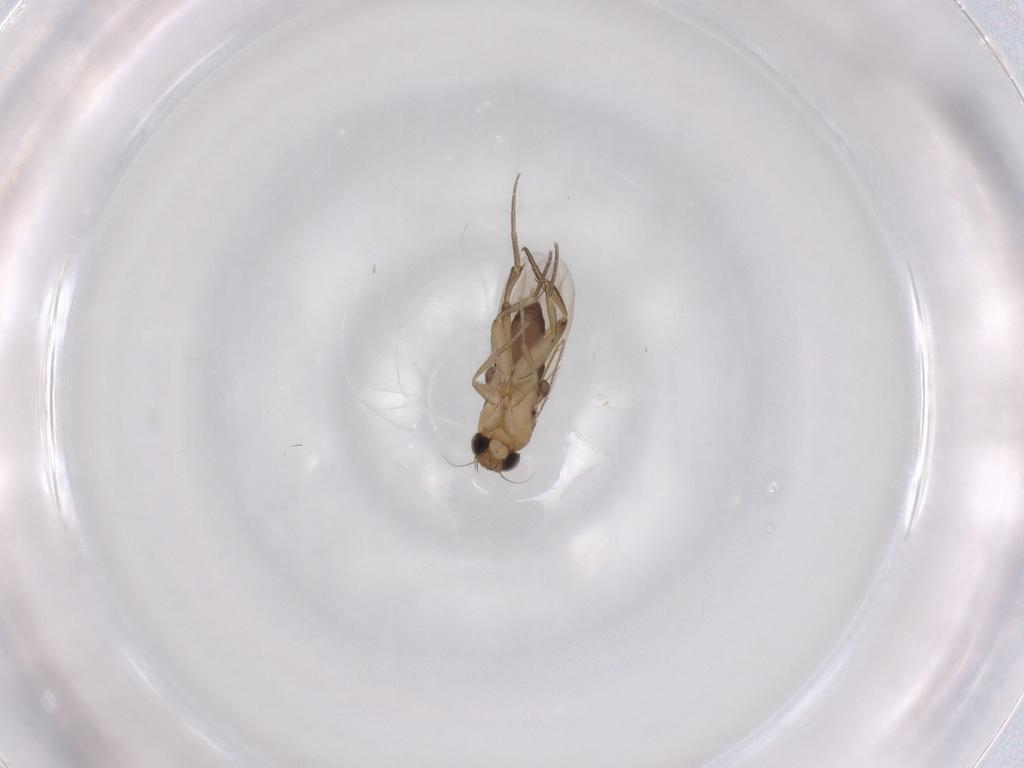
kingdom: Animalia
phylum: Arthropoda
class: Insecta
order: Diptera
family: Phoridae
